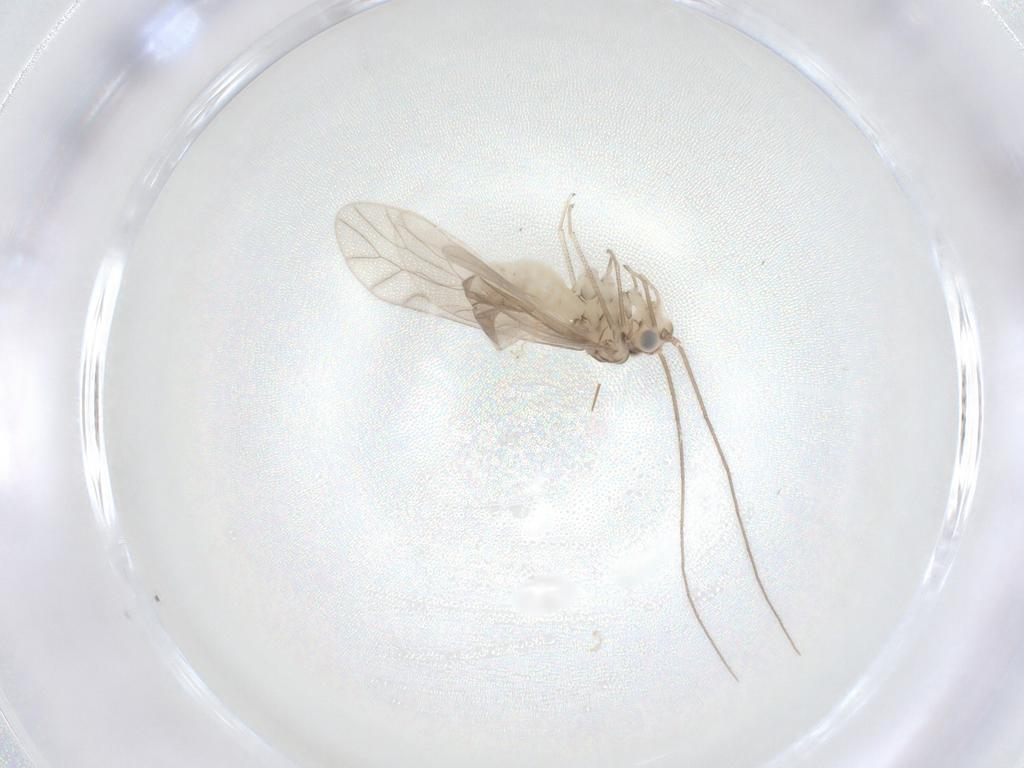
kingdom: Animalia
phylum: Arthropoda
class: Insecta
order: Psocodea
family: Caeciliusidae
